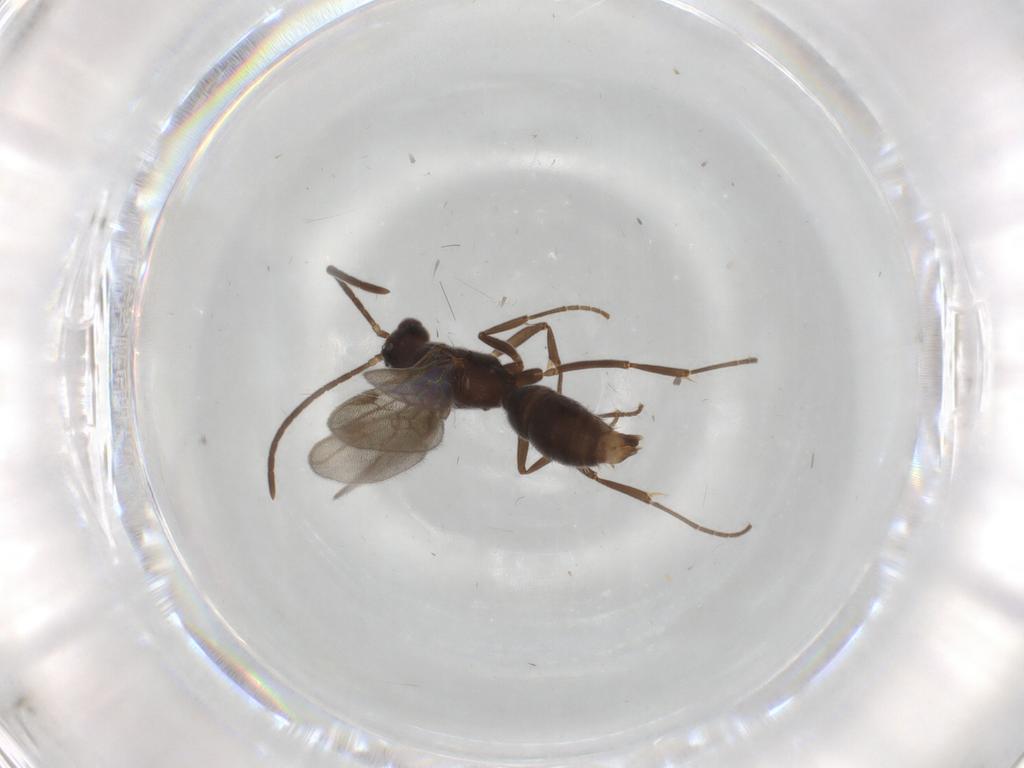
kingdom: Animalia
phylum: Arthropoda
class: Insecta
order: Hymenoptera
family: Formicidae
